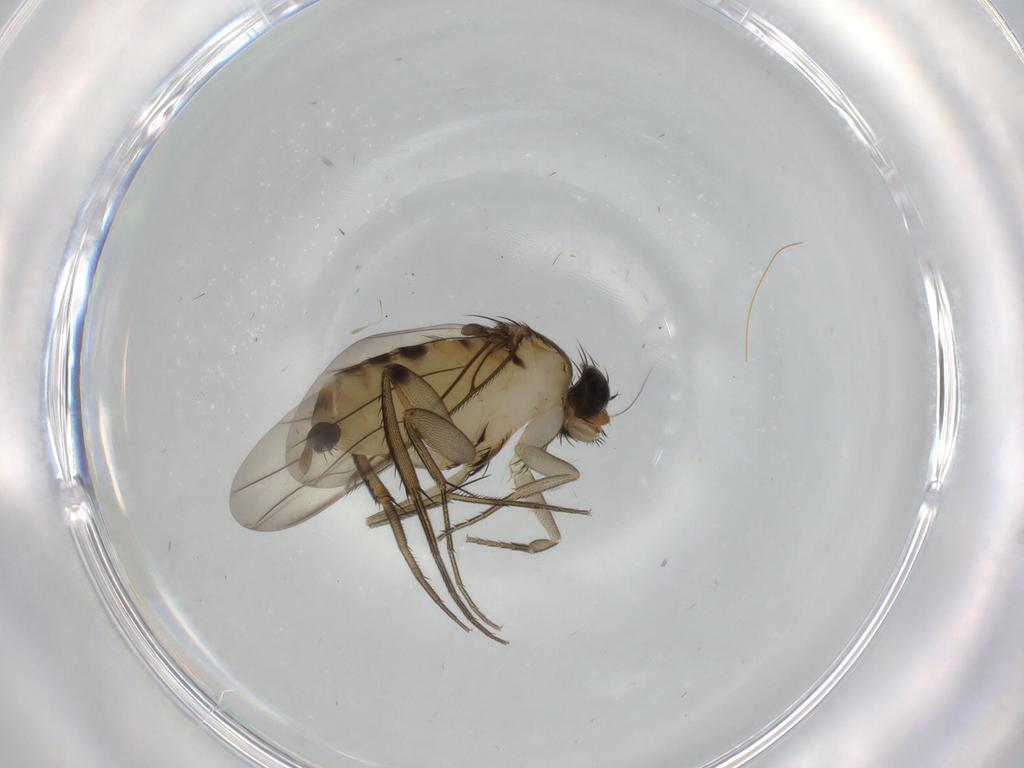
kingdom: Animalia
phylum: Arthropoda
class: Insecta
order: Diptera
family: Phoridae
